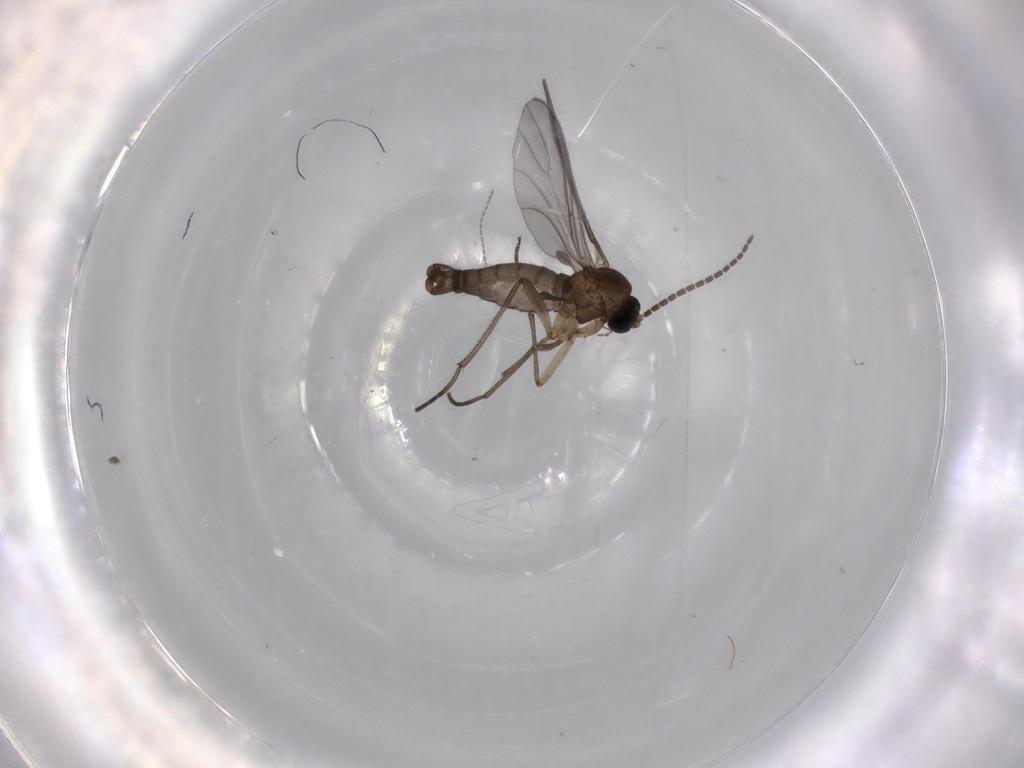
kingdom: Animalia
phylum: Arthropoda
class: Insecta
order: Diptera
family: Sciaridae
